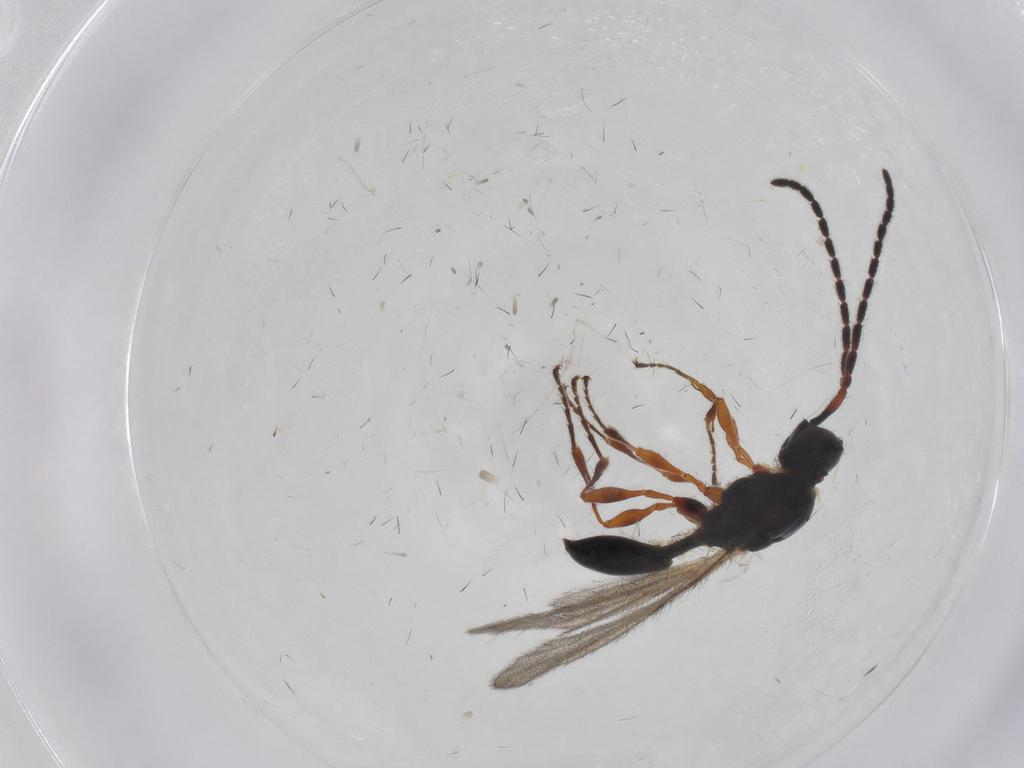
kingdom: Animalia
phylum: Arthropoda
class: Insecta
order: Hymenoptera
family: Diapriidae
